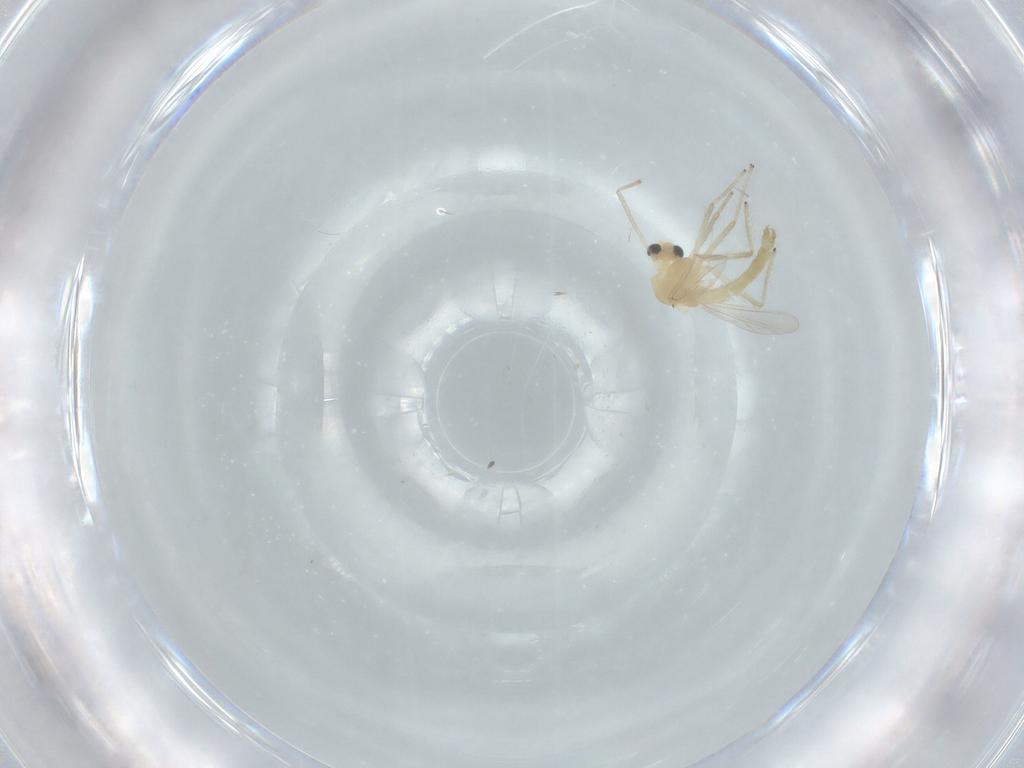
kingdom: Animalia
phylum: Arthropoda
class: Insecta
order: Diptera
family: Chironomidae
